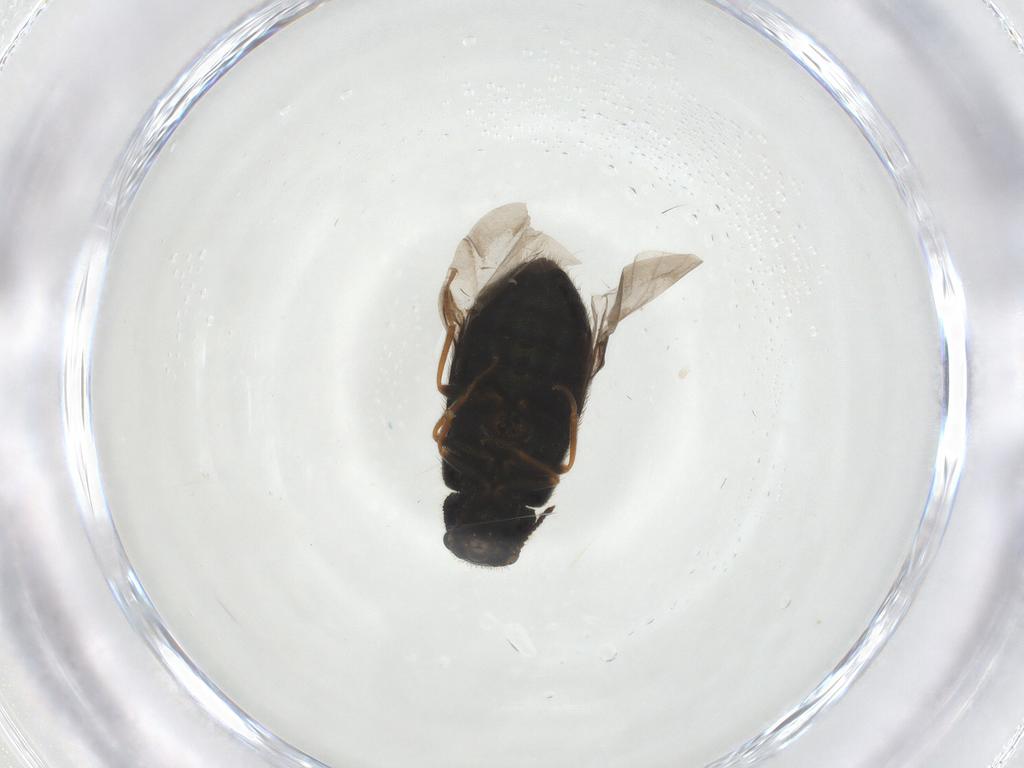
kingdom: Animalia
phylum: Arthropoda
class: Insecta
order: Coleoptera
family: Melyridae
